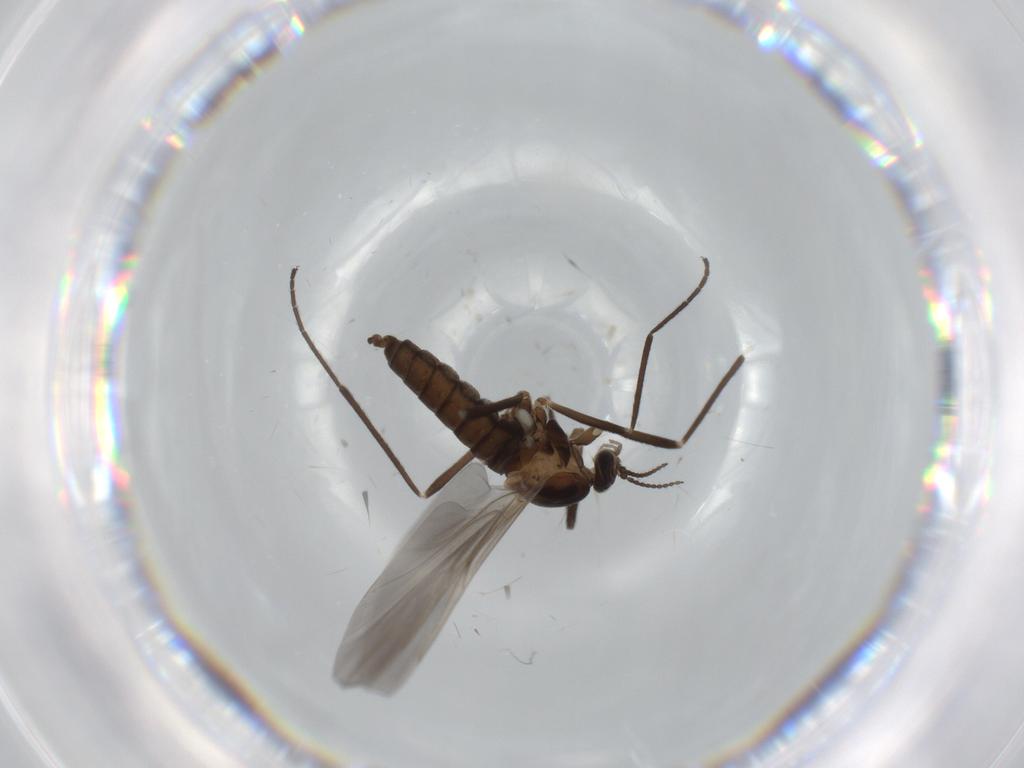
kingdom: Animalia
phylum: Arthropoda
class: Insecta
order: Diptera
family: Cecidomyiidae
